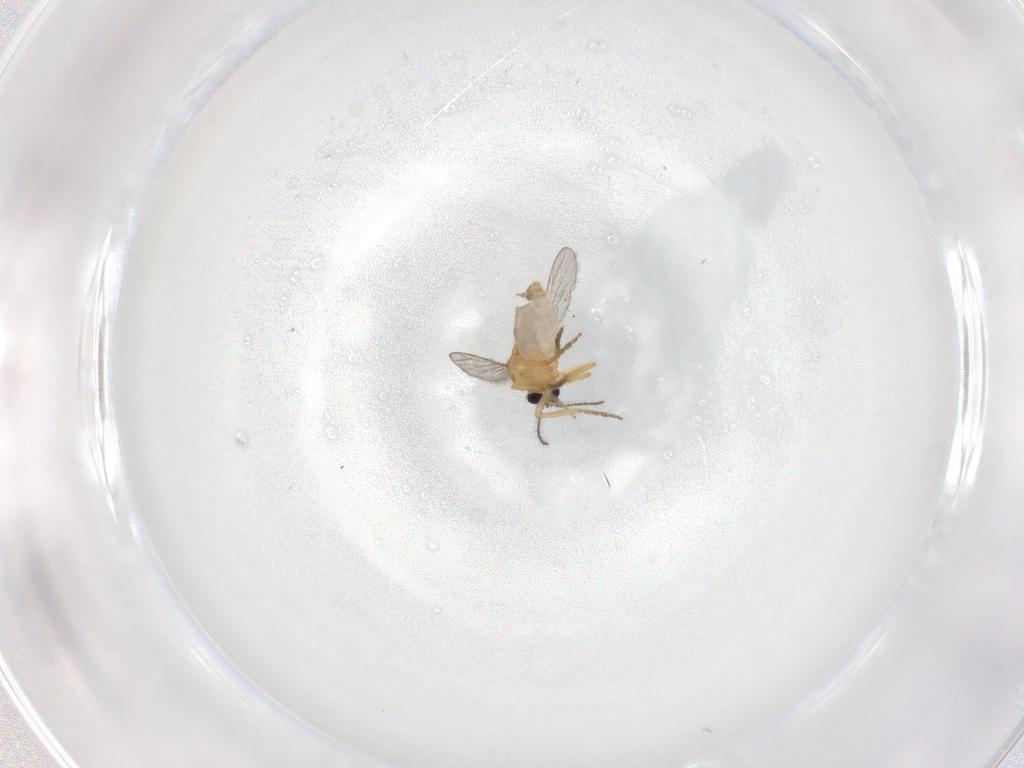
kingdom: Animalia
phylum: Arthropoda
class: Insecta
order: Diptera
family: Ceratopogonidae
